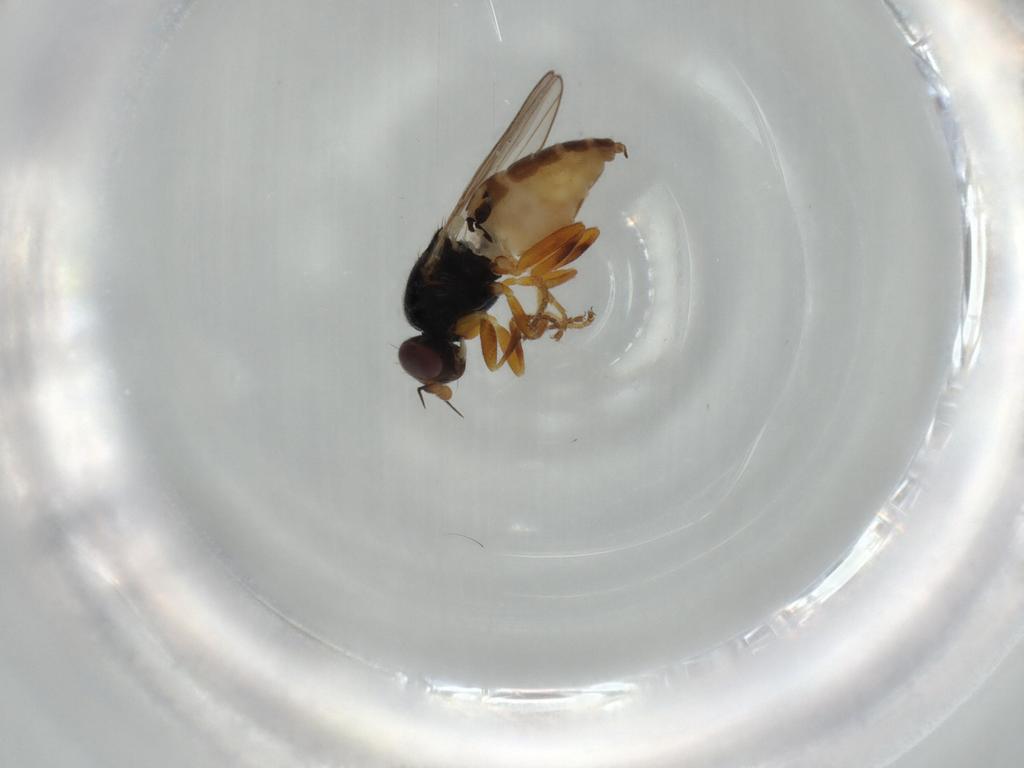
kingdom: Animalia
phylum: Arthropoda
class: Insecta
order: Diptera
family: Chloropidae
